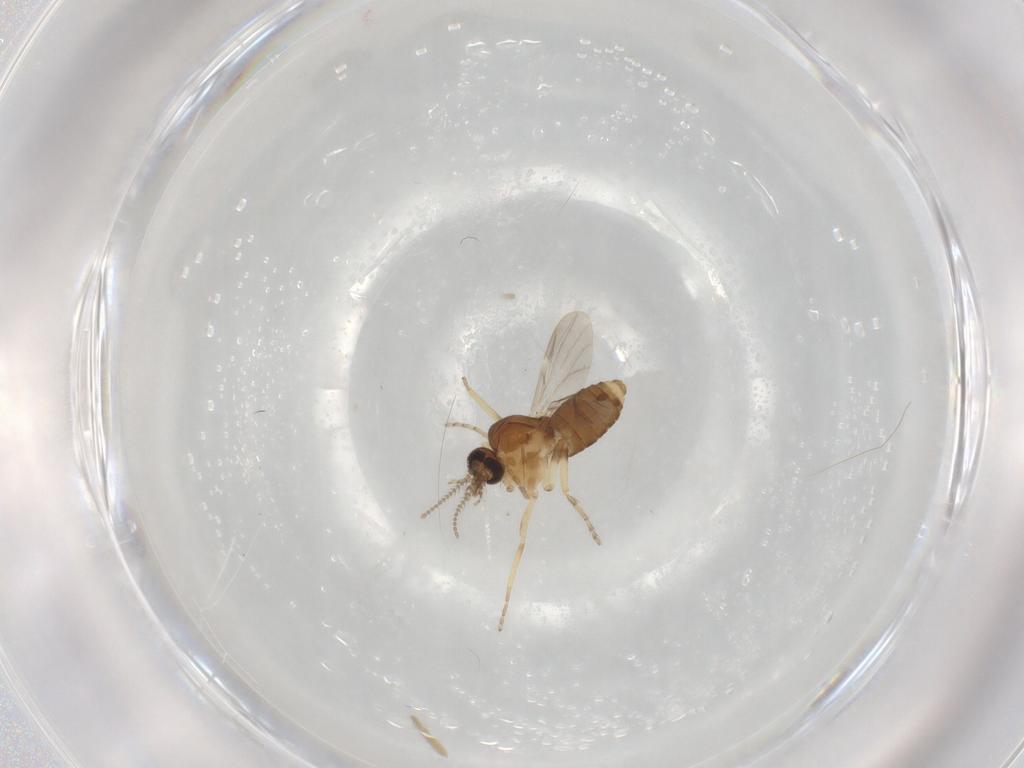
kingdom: Animalia
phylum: Arthropoda
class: Insecta
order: Diptera
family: Ceratopogonidae
